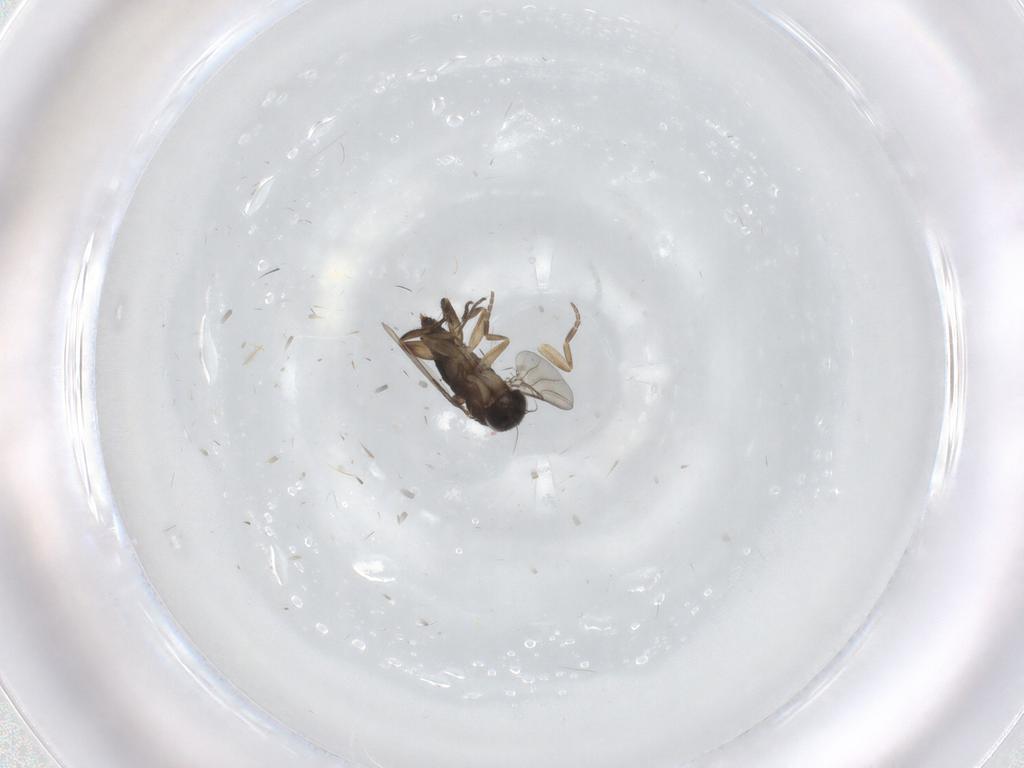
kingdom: Animalia
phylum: Arthropoda
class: Insecta
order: Diptera
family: Phoridae
